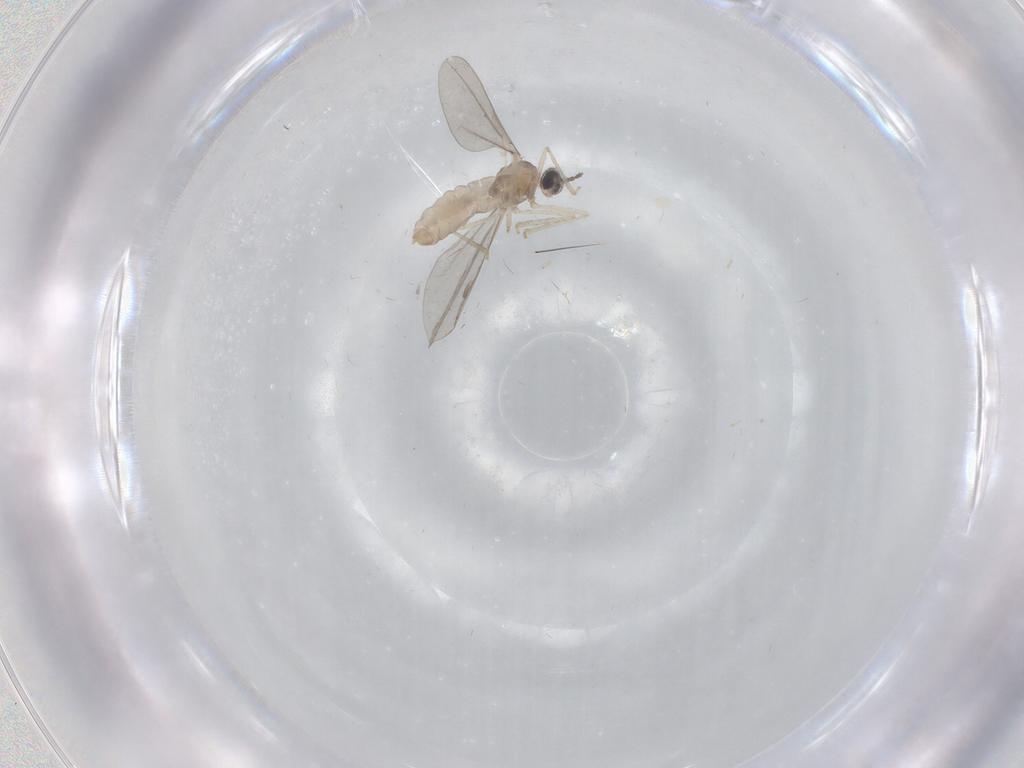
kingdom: Animalia
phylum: Arthropoda
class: Insecta
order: Diptera
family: Sciaridae
